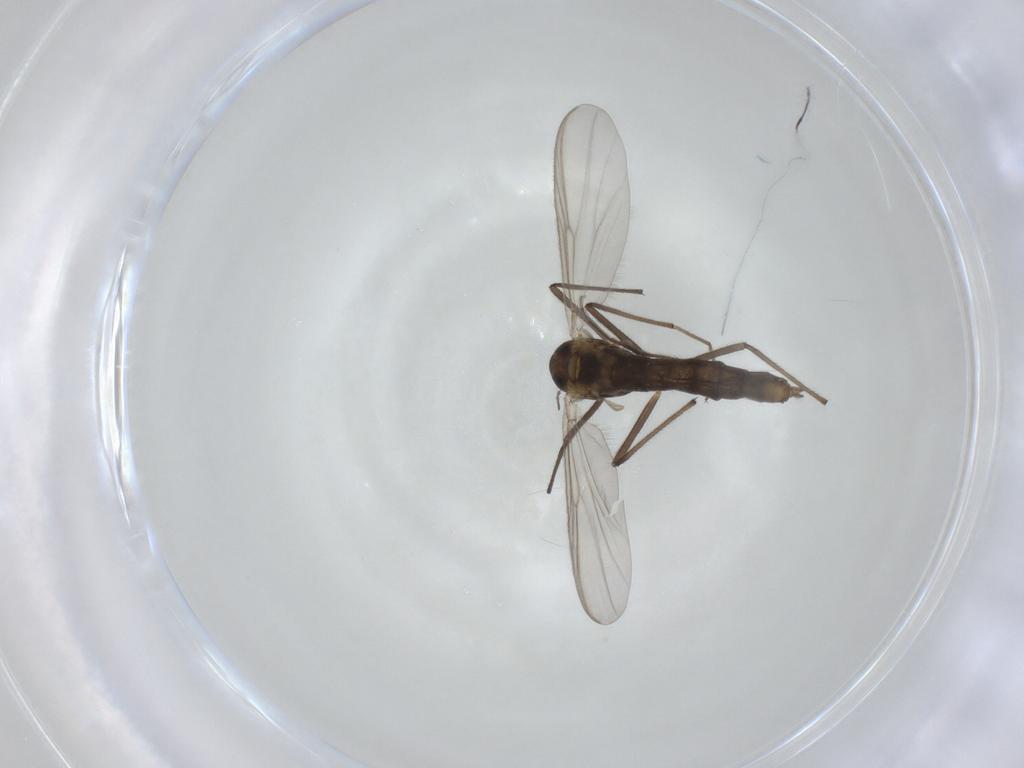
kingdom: Animalia
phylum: Arthropoda
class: Insecta
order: Diptera
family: Chironomidae
